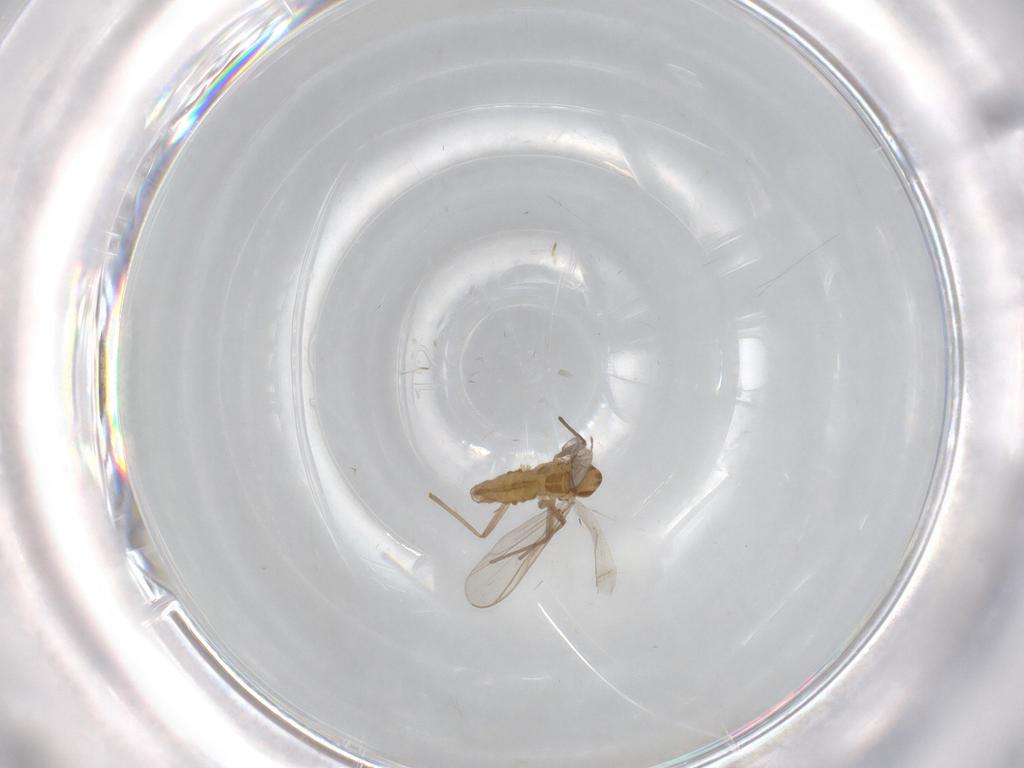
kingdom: Animalia
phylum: Arthropoda
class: Insecta
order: Diptera
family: Chironomidae
